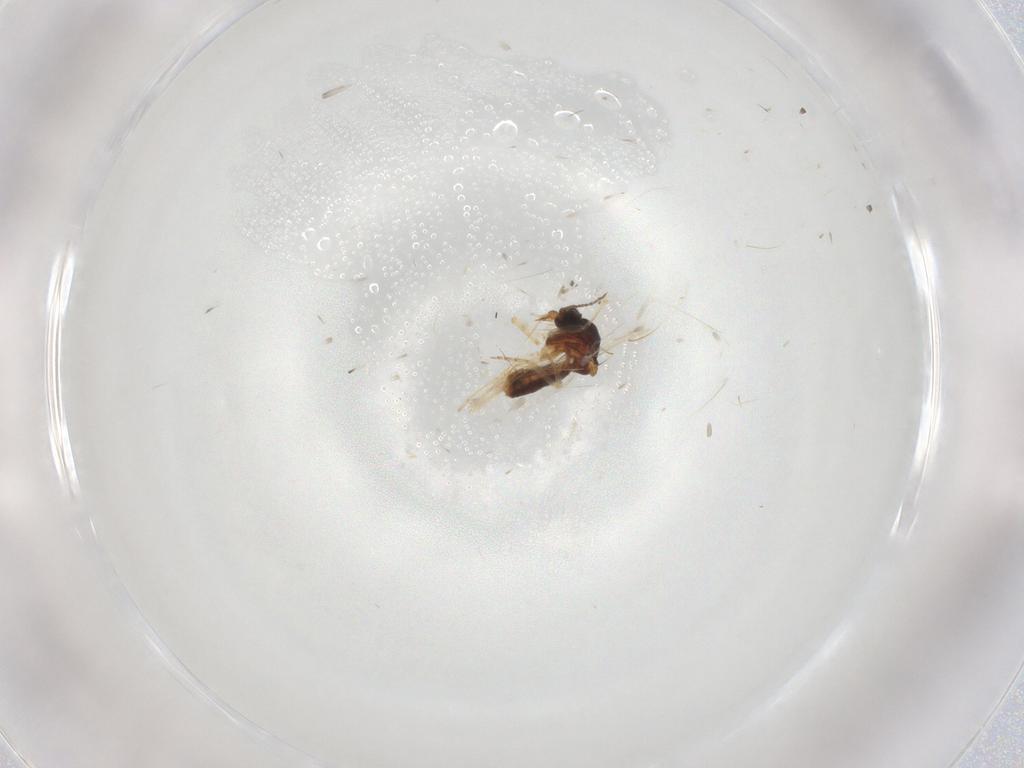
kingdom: Animalia
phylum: Arthropoda
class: Insecta
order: Diptera
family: Ceratopogonidae
